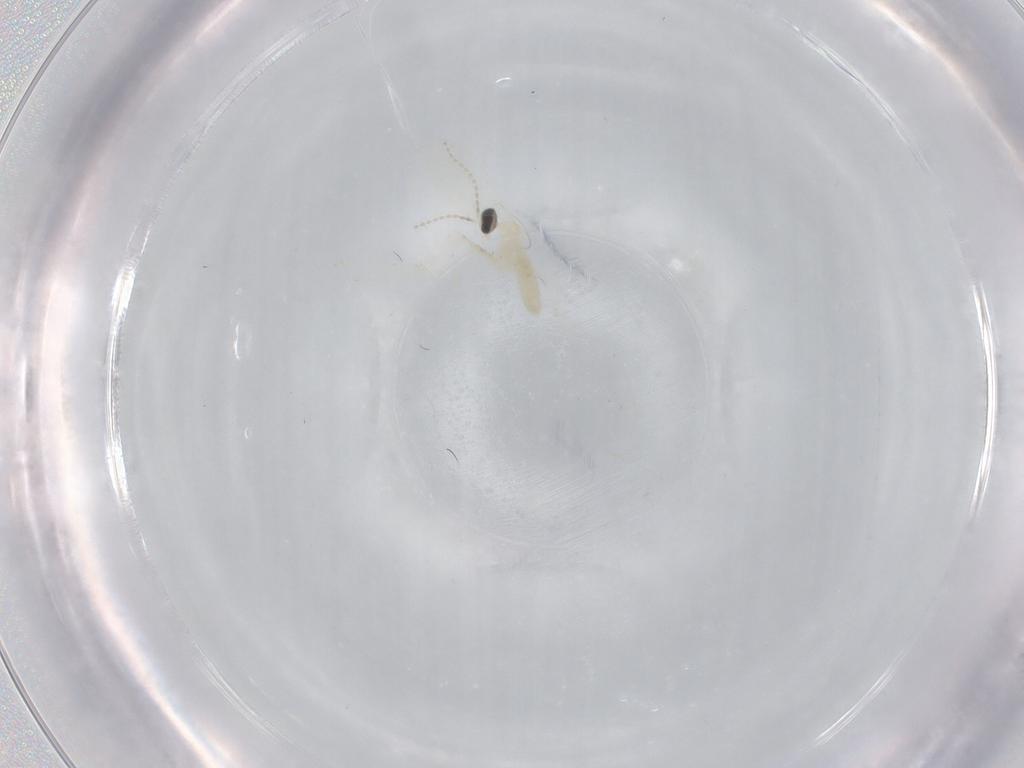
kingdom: Animalia
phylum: Arthropoda
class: Insecta
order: Diptera
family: Cecidomyiidae
